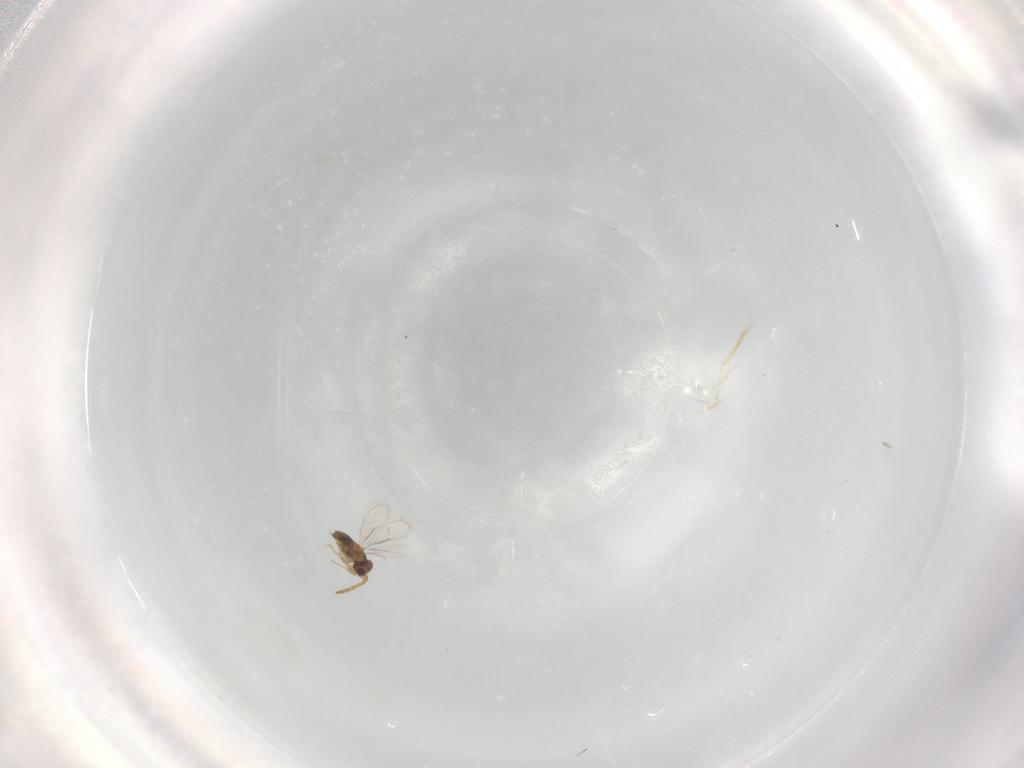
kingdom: Animalia
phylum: Arthropoda
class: Insecta
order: Hymenoptera
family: Aphelinidae
